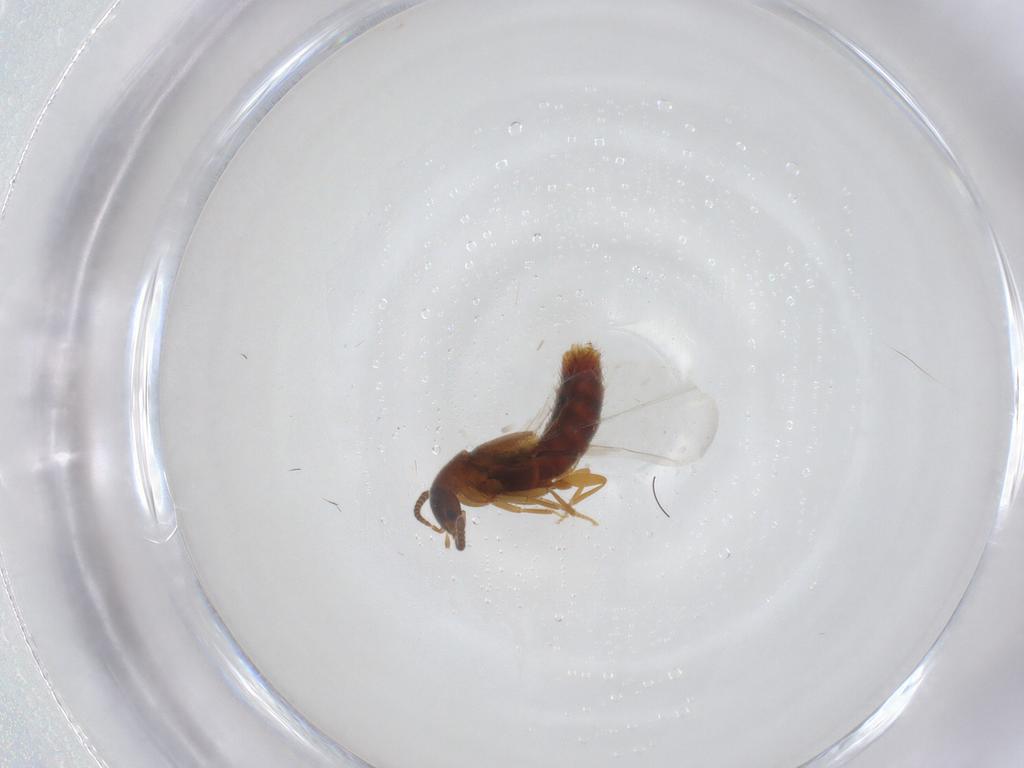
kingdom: Animalia
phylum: Arthropoda
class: Insecta
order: Coleoptera
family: Staphylinidae
